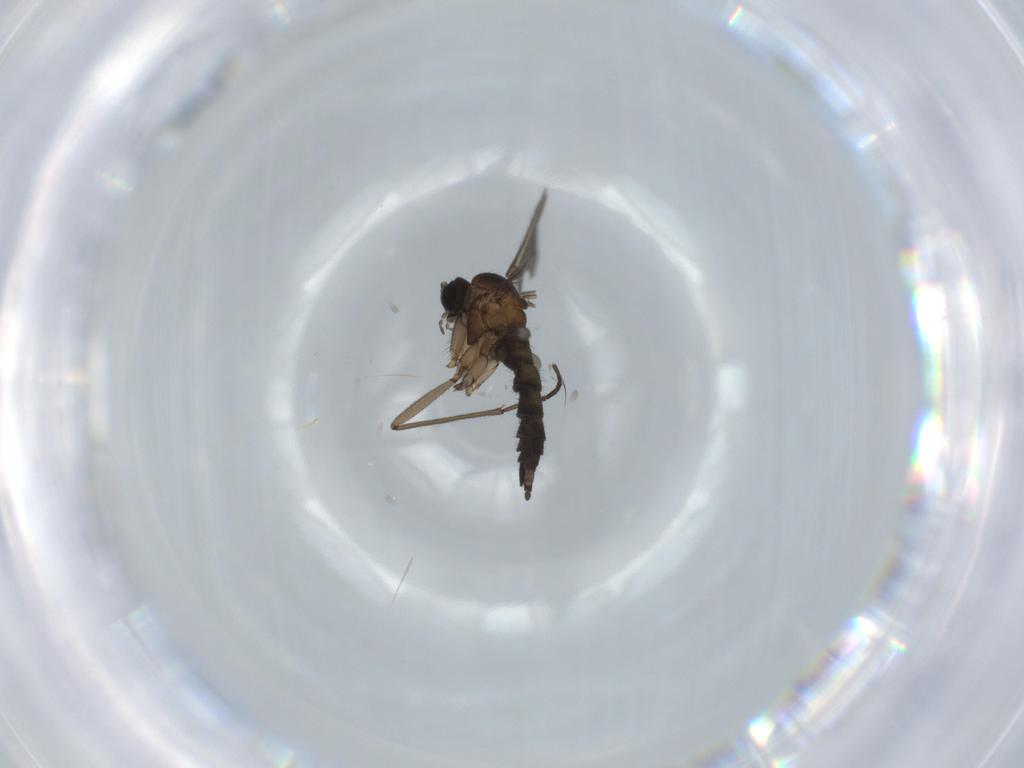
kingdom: Animalia
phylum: Arthropoda
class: Insecta
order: Diptera
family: Sciaridae
